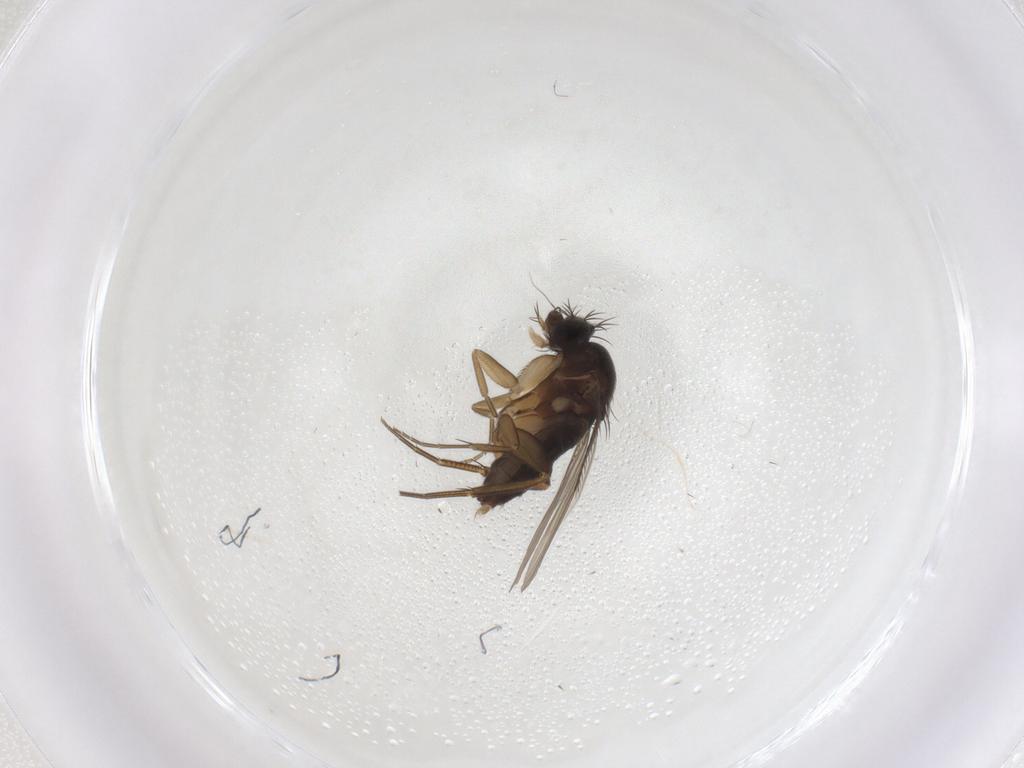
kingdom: Animalia
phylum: Arthropoda
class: Insecta
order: Diptera
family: Phoridae
